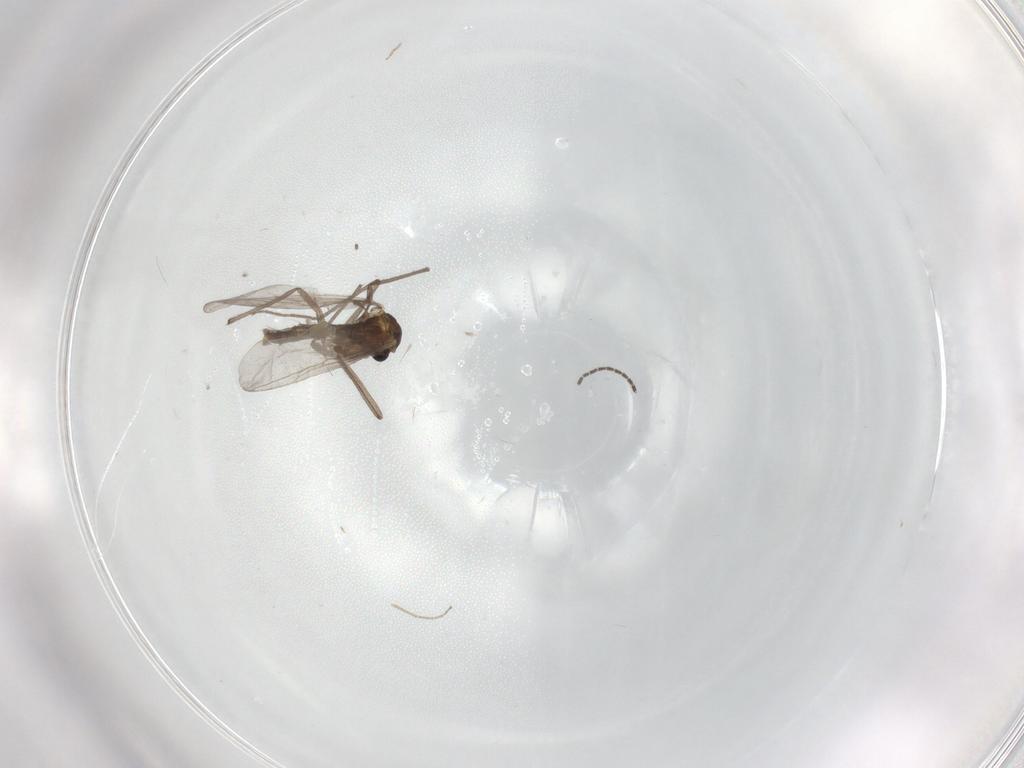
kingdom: Animalia
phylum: Arthropoda
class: Insecta
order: Diptera
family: Chironomidae
